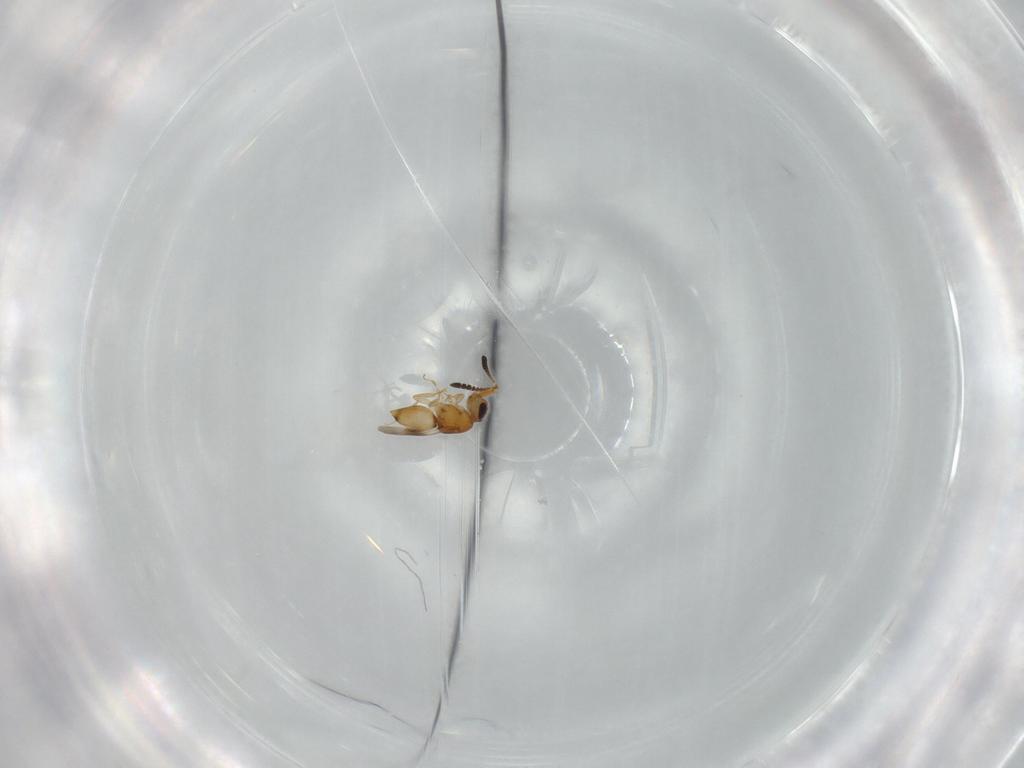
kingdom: Animalia
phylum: Arthropoda
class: Insecta
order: Hymenoptera
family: Ceraphronidae
